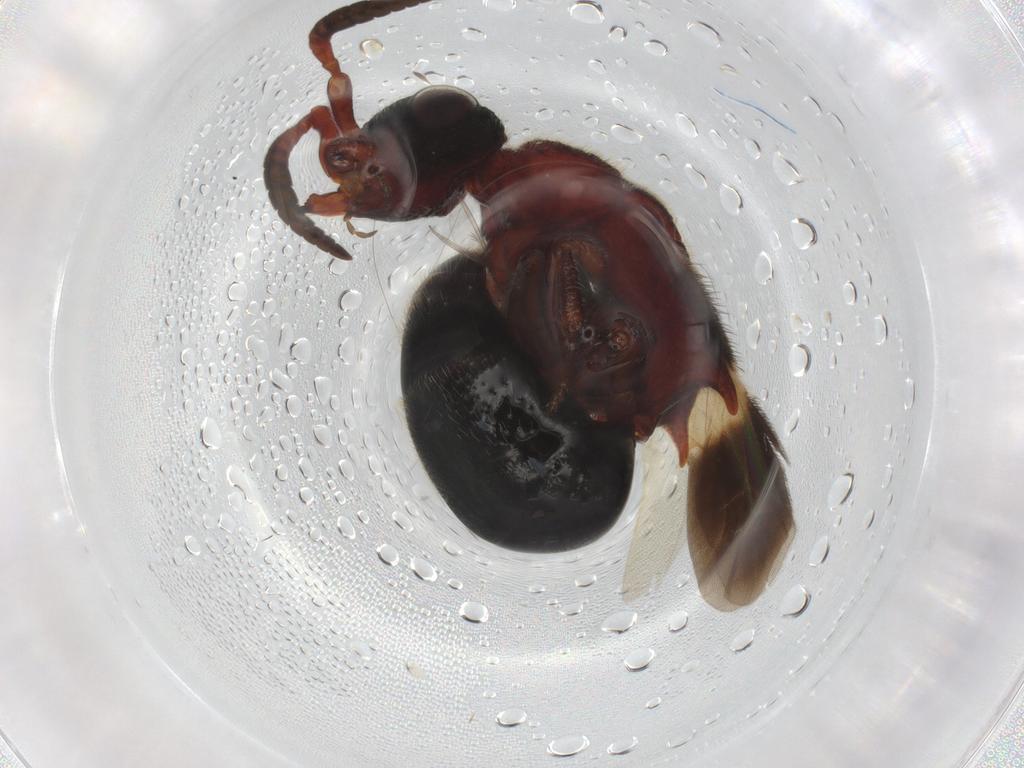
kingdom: Animalia
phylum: Arthropoda
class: Insecta
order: Hymenoptera
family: Bethylidae
